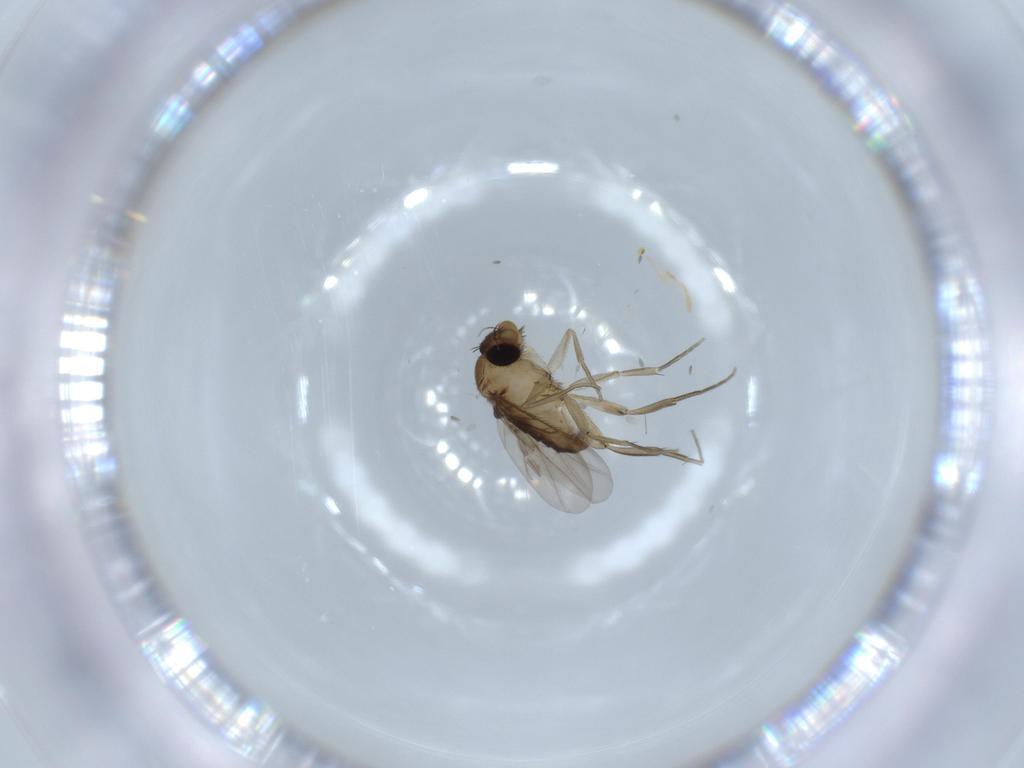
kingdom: Animalia
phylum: Arthropoda
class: Insecta
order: Diptera
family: Phoridae
